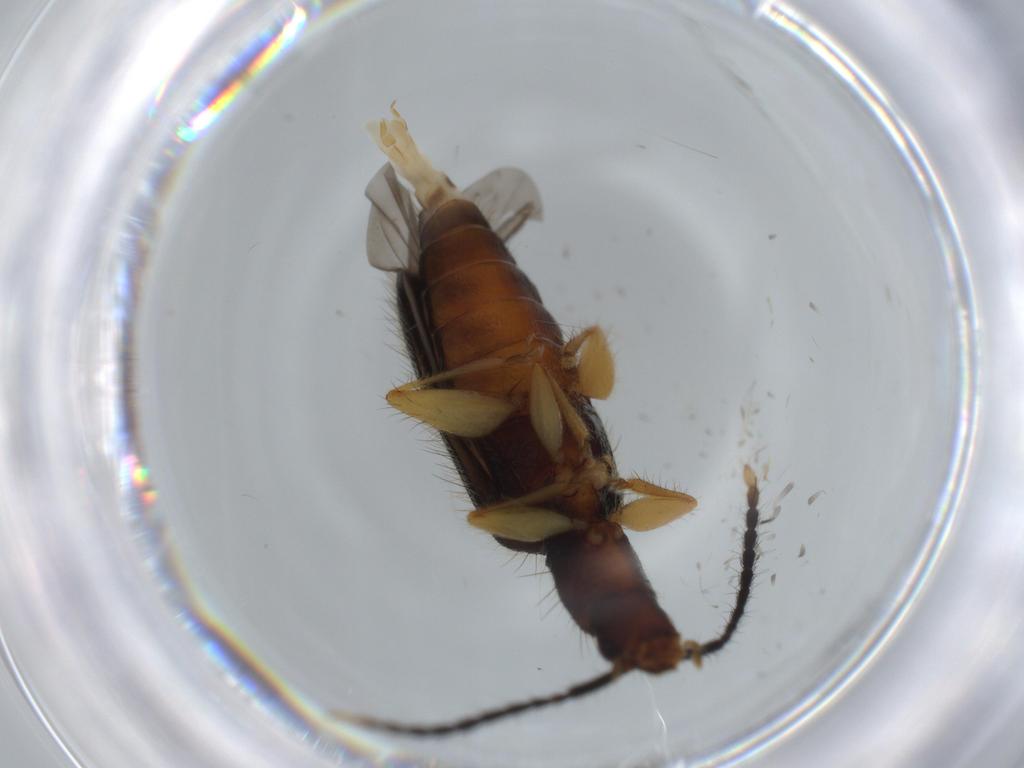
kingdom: Animalia
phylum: Arthropoda
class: Insecta
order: Coleoptera
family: Silvanidae
